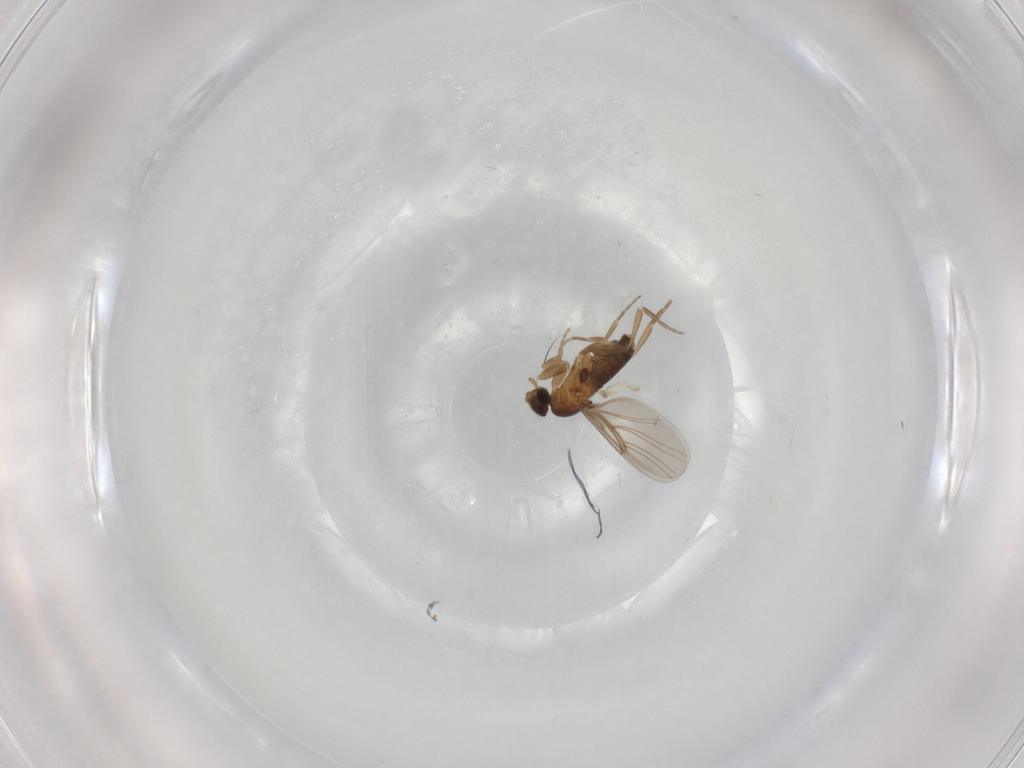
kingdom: Animalia
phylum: Arthropoda
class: Insecta
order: Diptera
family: Phoridae
